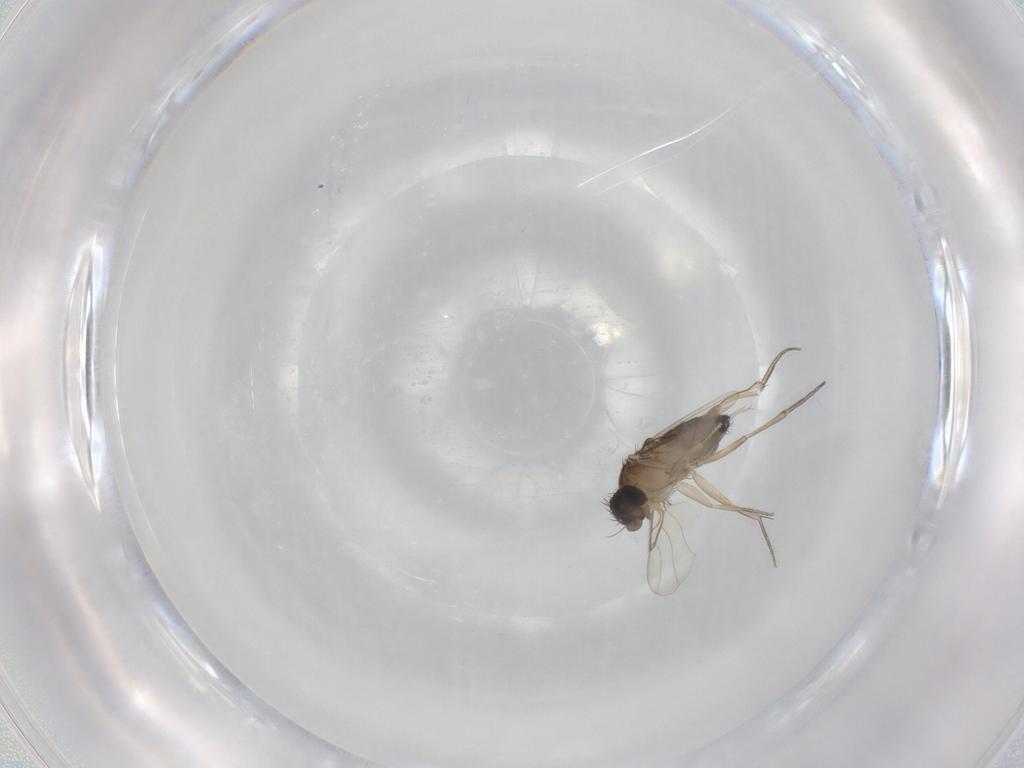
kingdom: Animalia
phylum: Arthropoda
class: Insecta
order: Diptera
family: Phoridae
